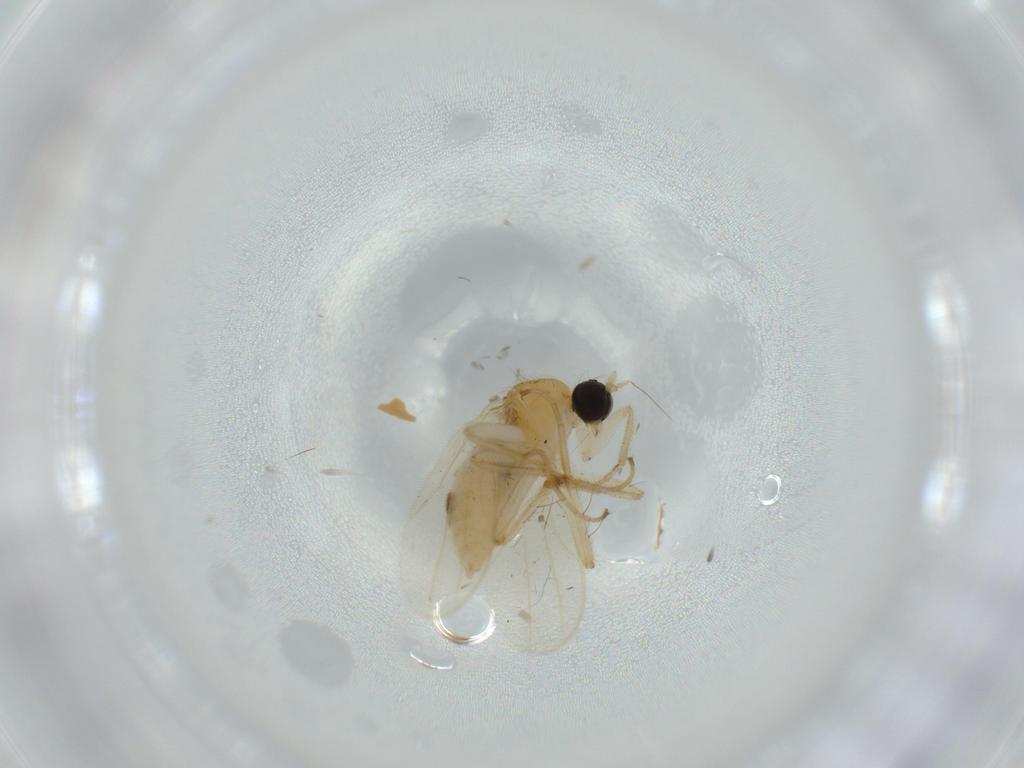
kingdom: Animalia
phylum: Arthropoda
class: Insecta
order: Diptera
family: Hybotidae
